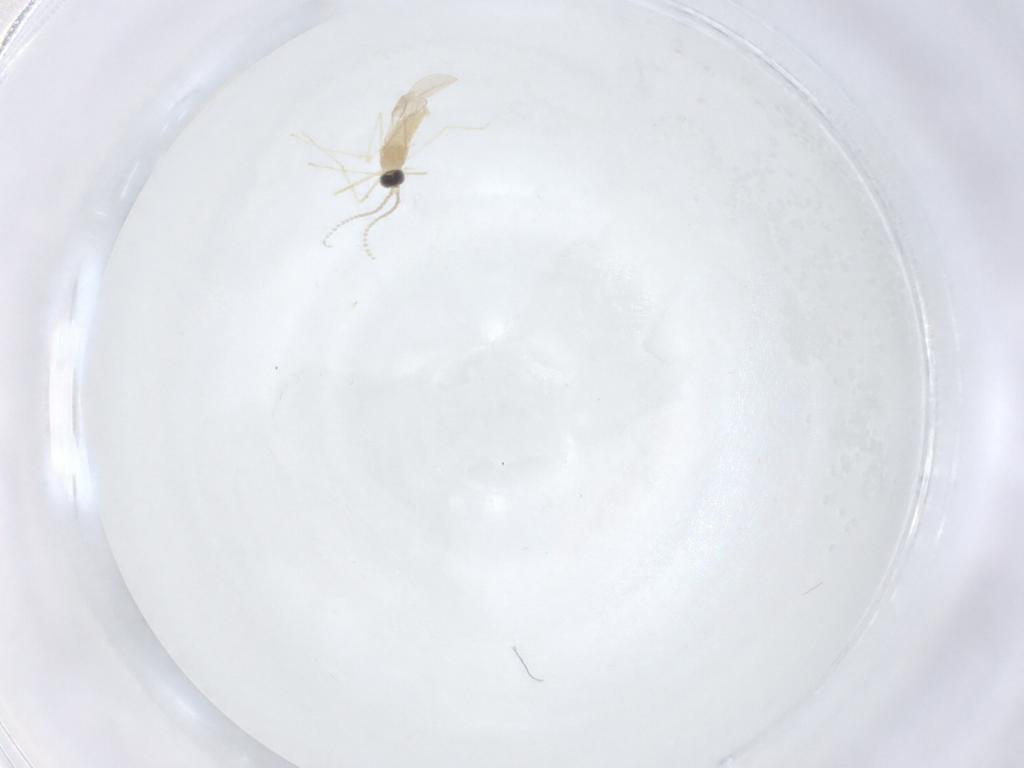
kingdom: Animalia
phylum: Arthropoda
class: Insecta
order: Diptera
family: Cecidomyiidae
